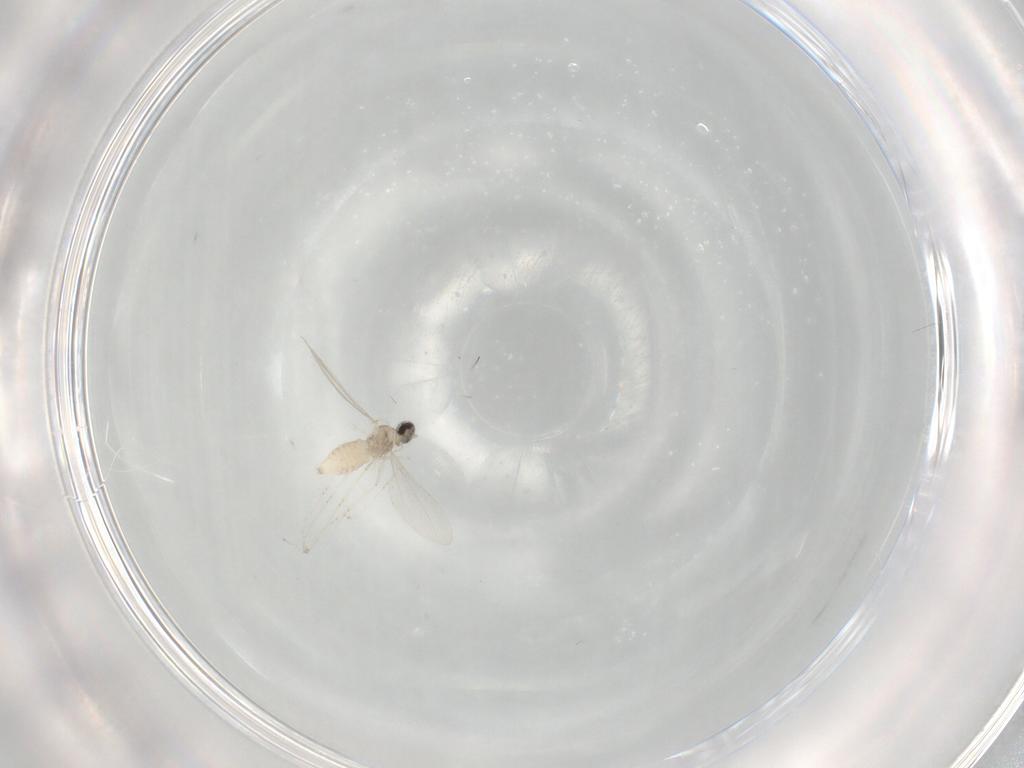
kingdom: Animalia
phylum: Arthropoda
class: Insecta
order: Diptera
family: Cecidomyiidae
